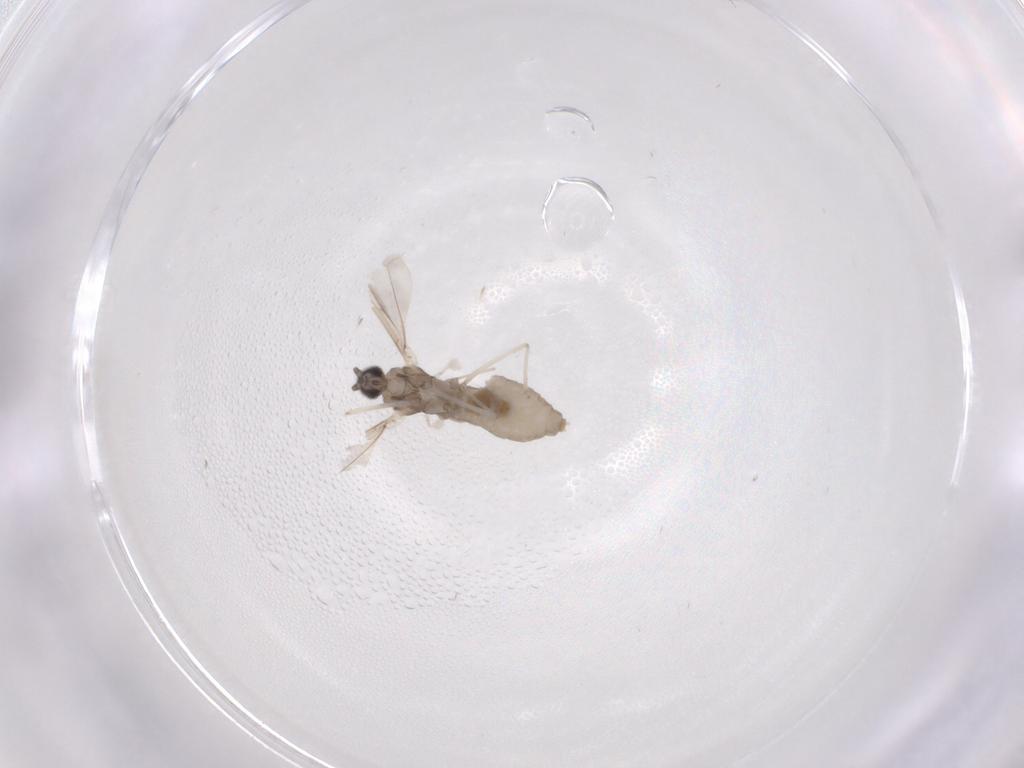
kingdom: Animalia
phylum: Arthropoda
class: Insecta
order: Diptera
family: Cecidomyiidae
